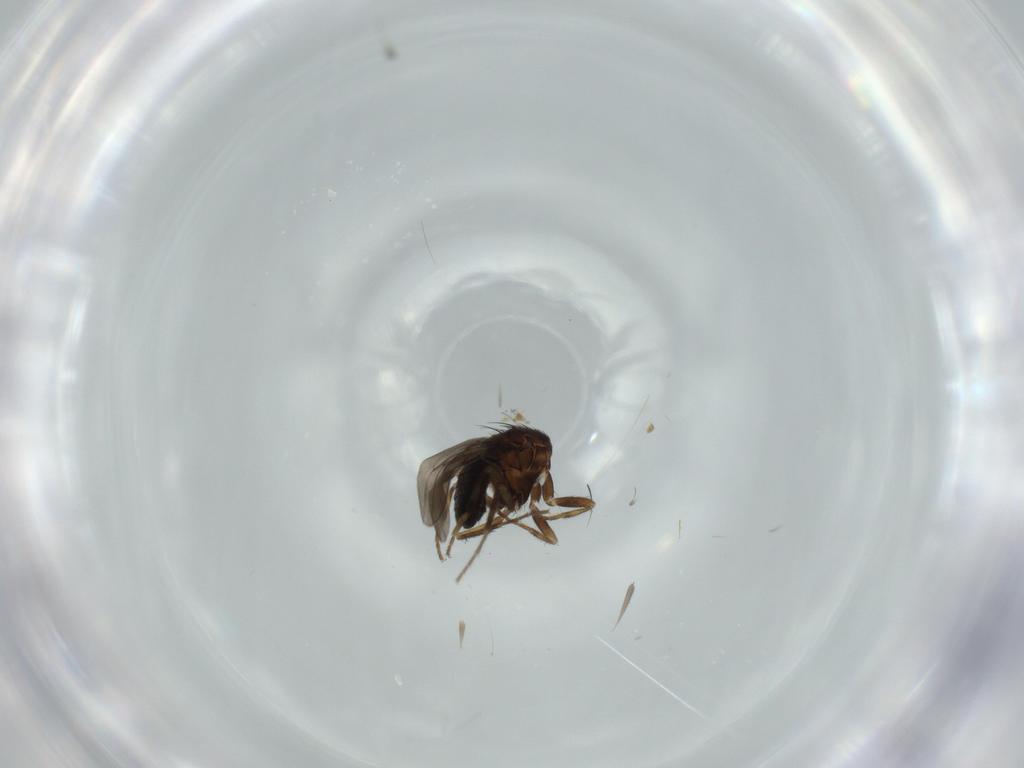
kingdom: Animalia
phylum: Arthropoda
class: Insecta
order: Diptera
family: Sphaeroceridae
